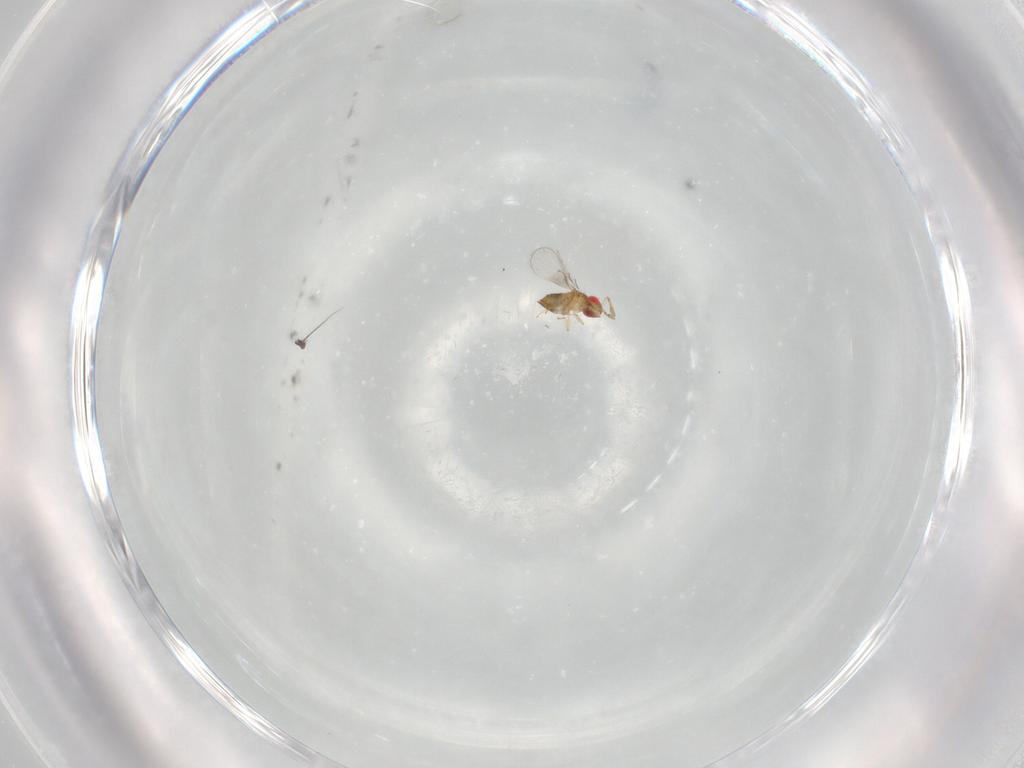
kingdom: Animalia
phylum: Arthropoda
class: Insecta
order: Hymenoptera
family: Trichogrammatidae
